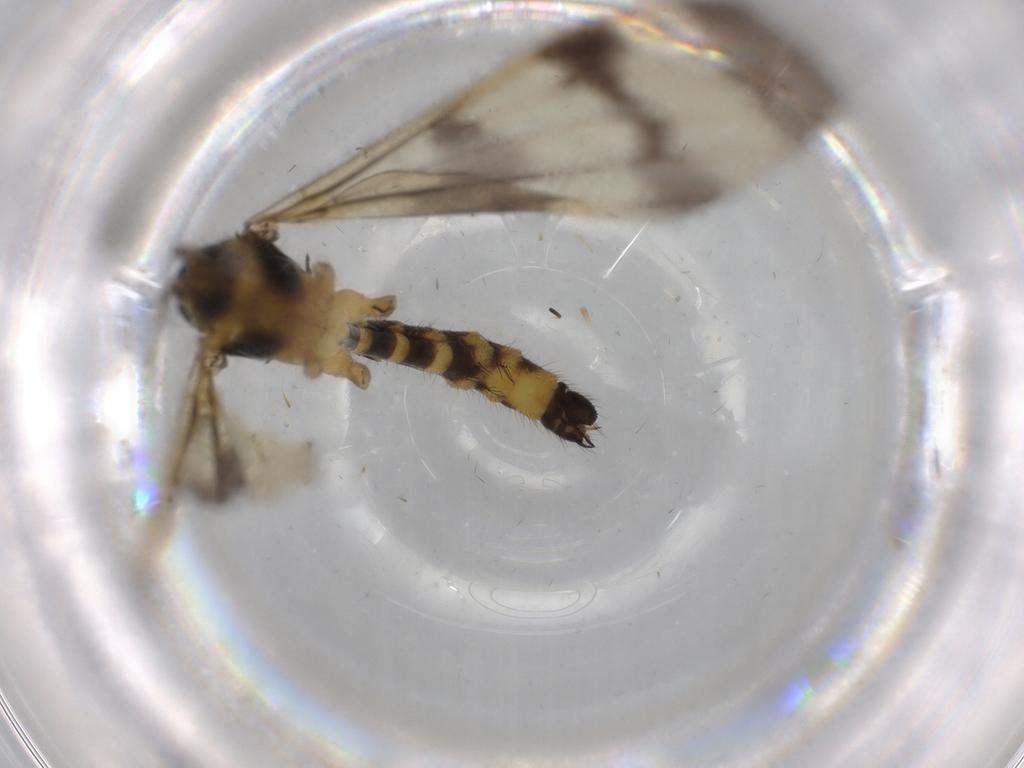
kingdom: Animalia
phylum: Arthropoda
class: Insecta
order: Diptera
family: Limoniidae
